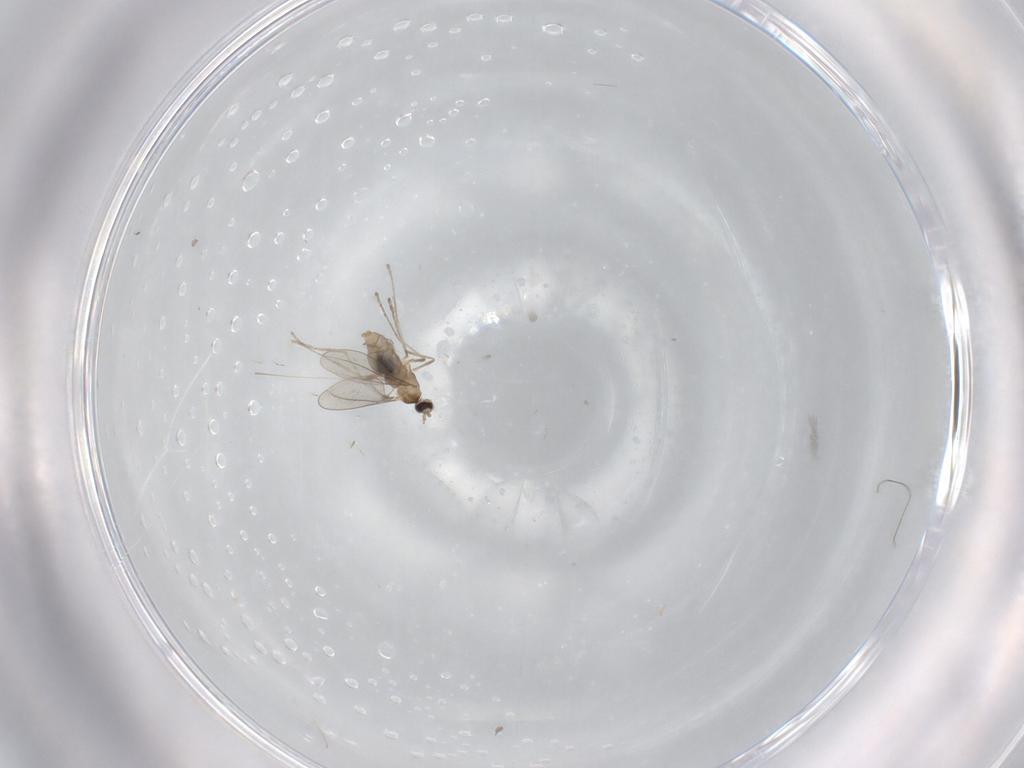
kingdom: Animalia
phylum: Arthropoda
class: Insecta
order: Diptera
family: Cecidomyiidae
